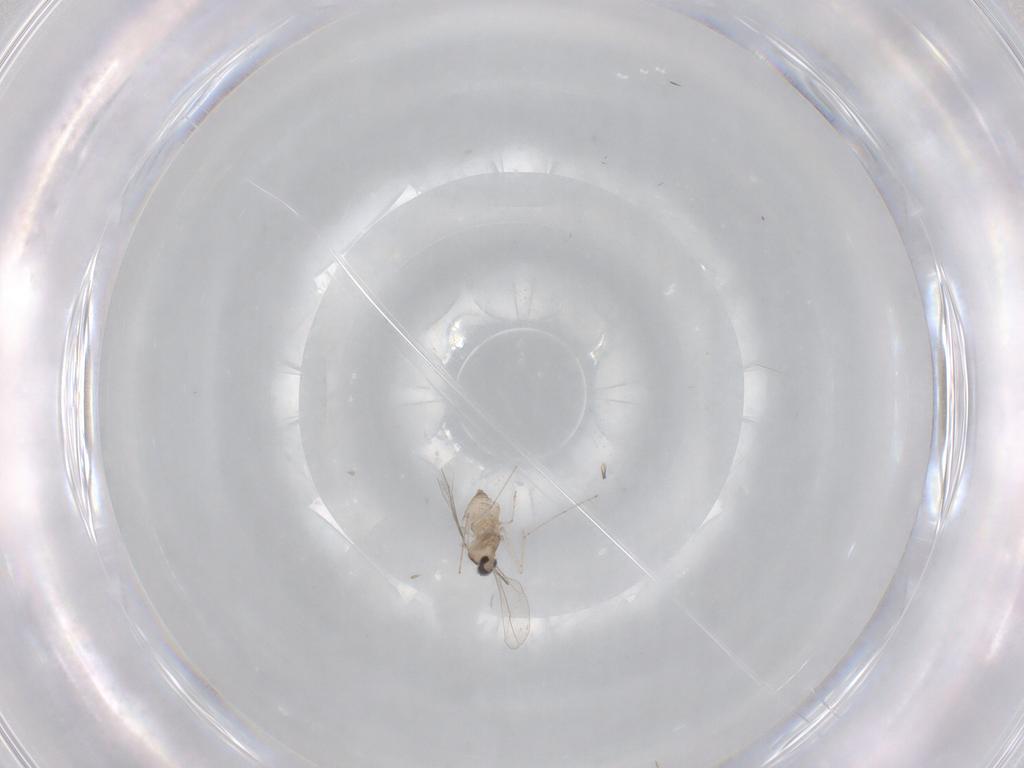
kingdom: Animalia
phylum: Arthropoda
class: Insecta
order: Diptera
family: Cecidomyiidae
